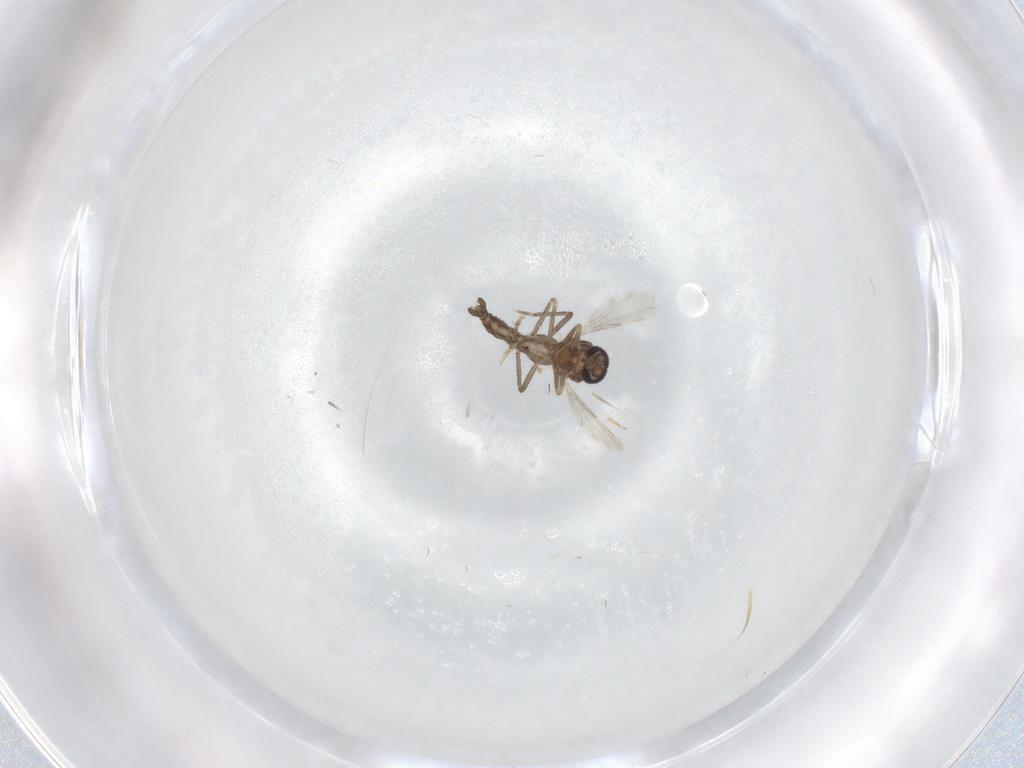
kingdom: Animalia
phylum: Arthropoda
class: Insecta
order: Diptera
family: Ceratopogonidae
